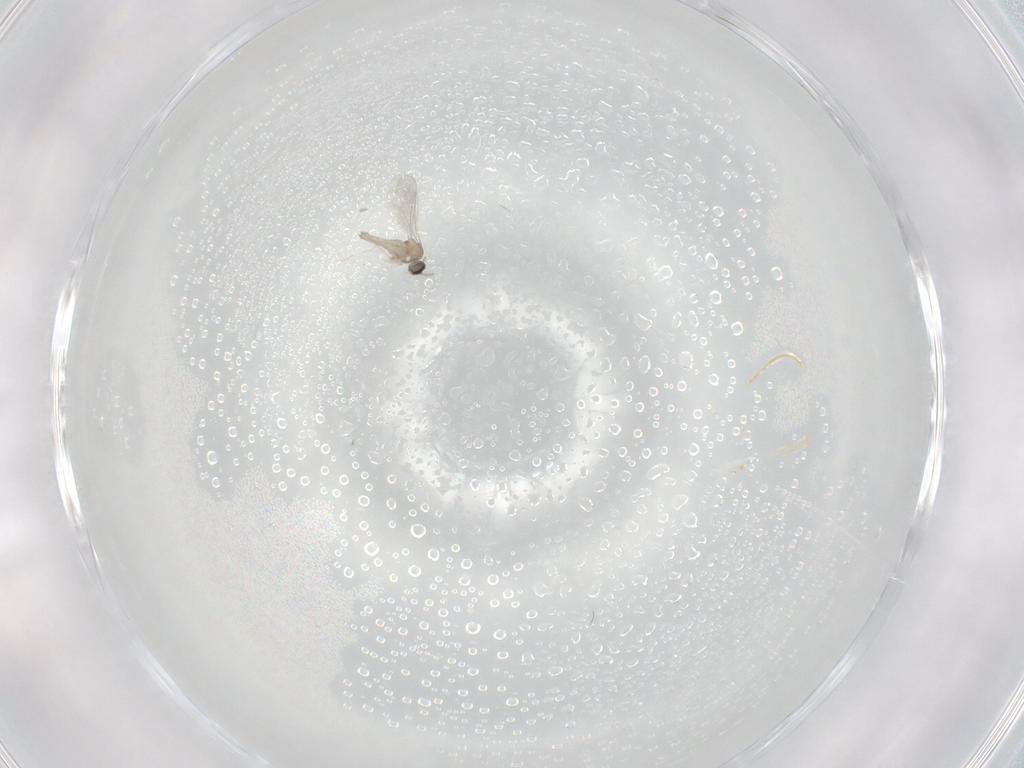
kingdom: Animalia
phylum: Arthropoda
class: Insecta
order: Diptera
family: Cecidomyiidae
